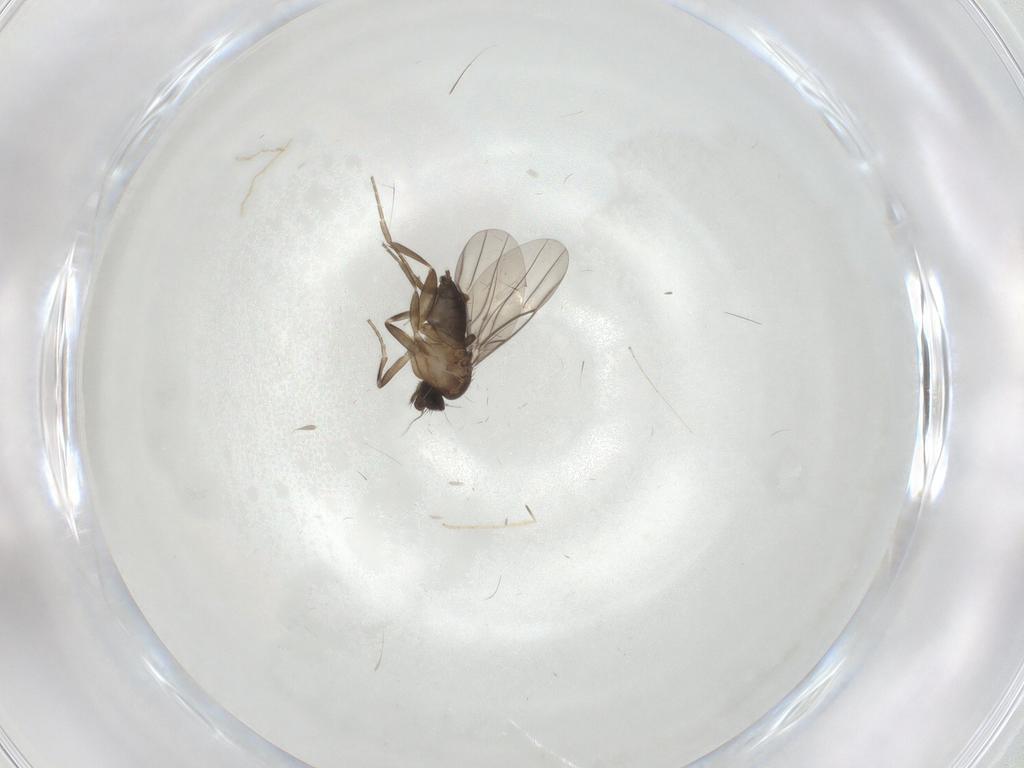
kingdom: Animalia
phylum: Arthropoda
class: Insecta
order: Diptera
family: Chironomidae
